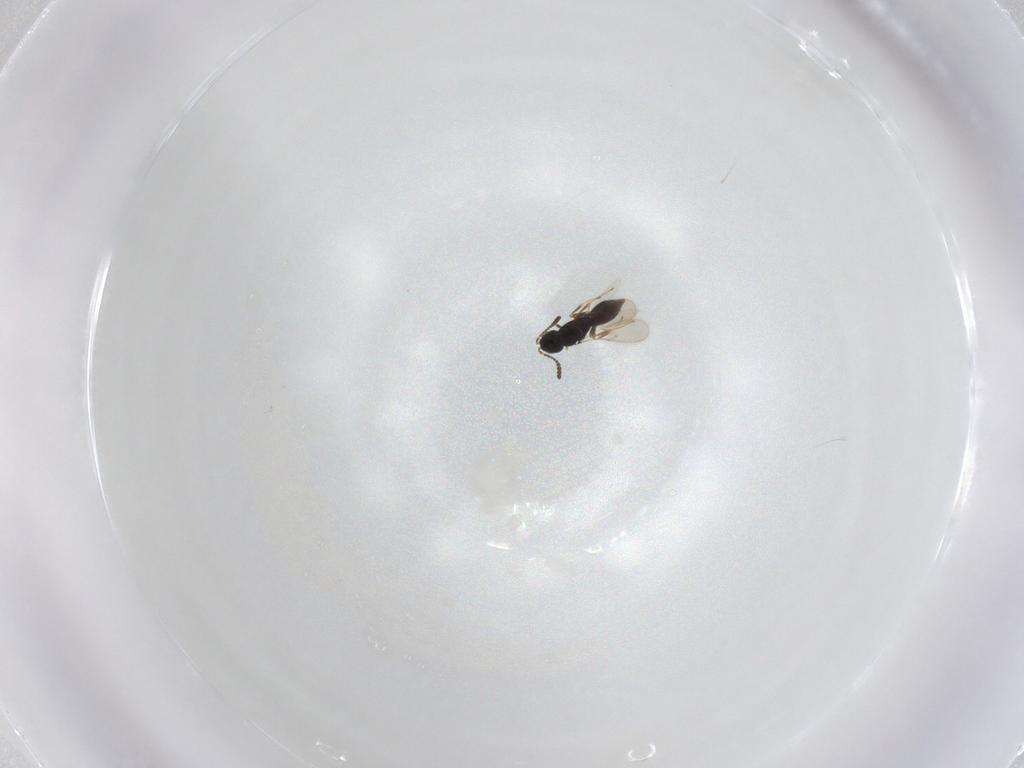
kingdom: Animalia
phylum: Arthropoda
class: Insecta
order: Hymenoptera
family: Scelionidae
